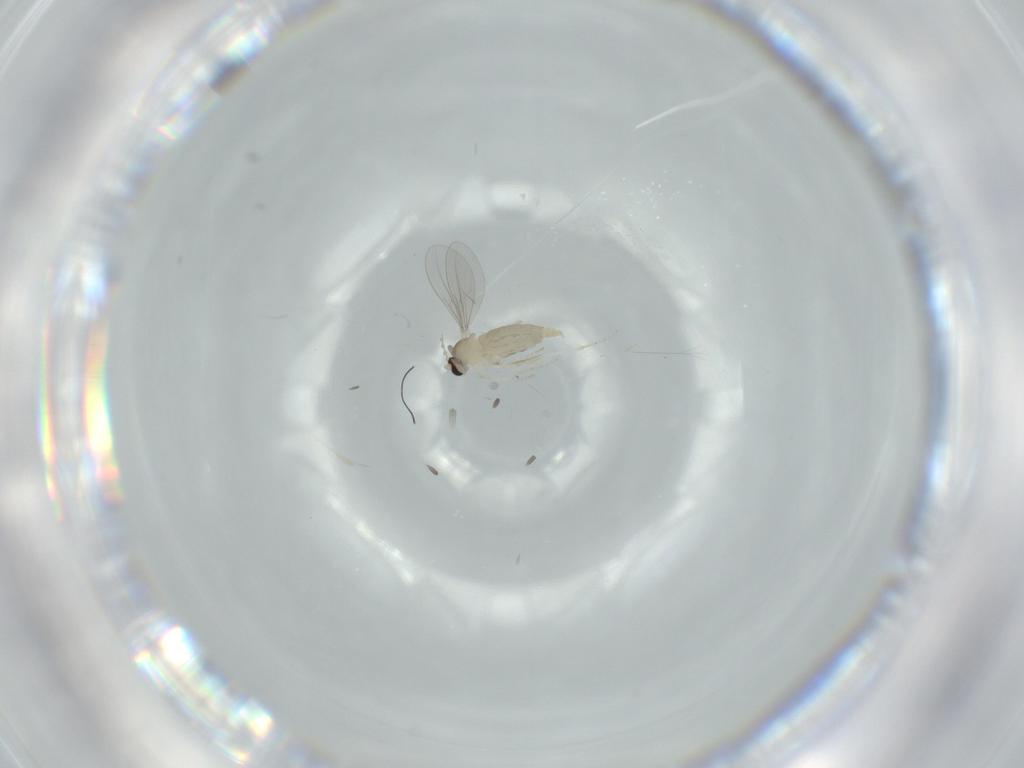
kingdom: Animalia
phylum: Arthropoda
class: Insecta
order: Diptera
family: Cecidomyiidae
